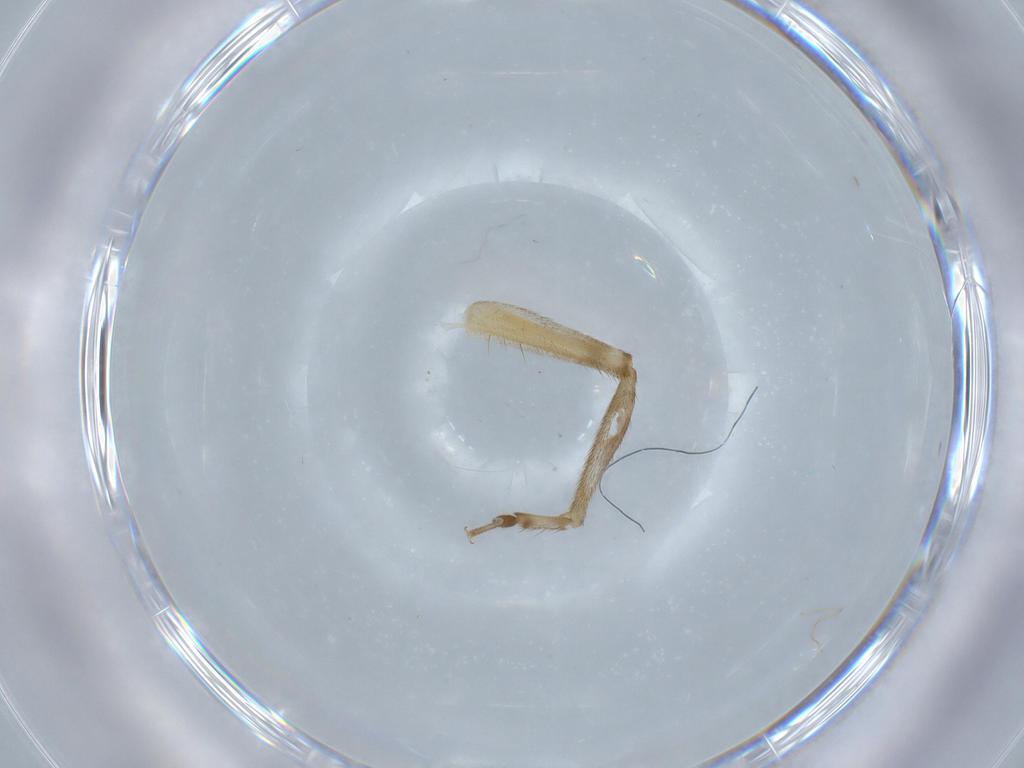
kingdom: Animalia
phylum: Arthropoda
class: Insecta
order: Orthoptera
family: Trigonidiidae
